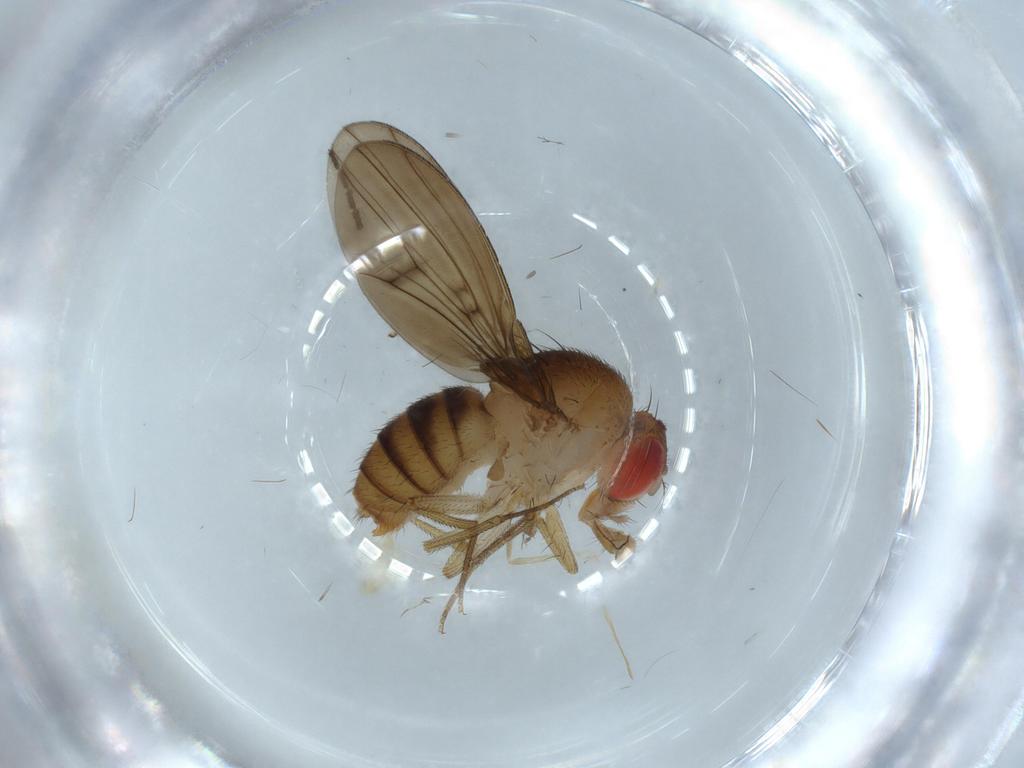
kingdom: Animalia
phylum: Arthropoda
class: Insecta
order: Diptera
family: Drosophilidae
